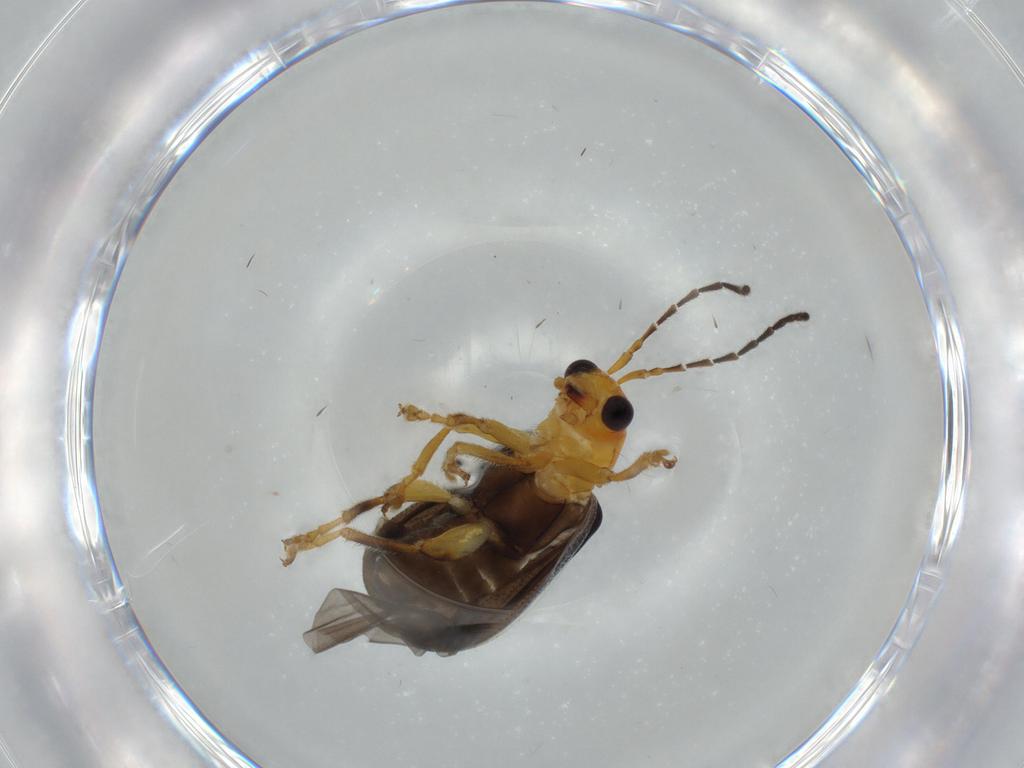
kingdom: Animalia
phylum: Arthropoda
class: Insecta
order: Coleoptera
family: Chrysomelidae
